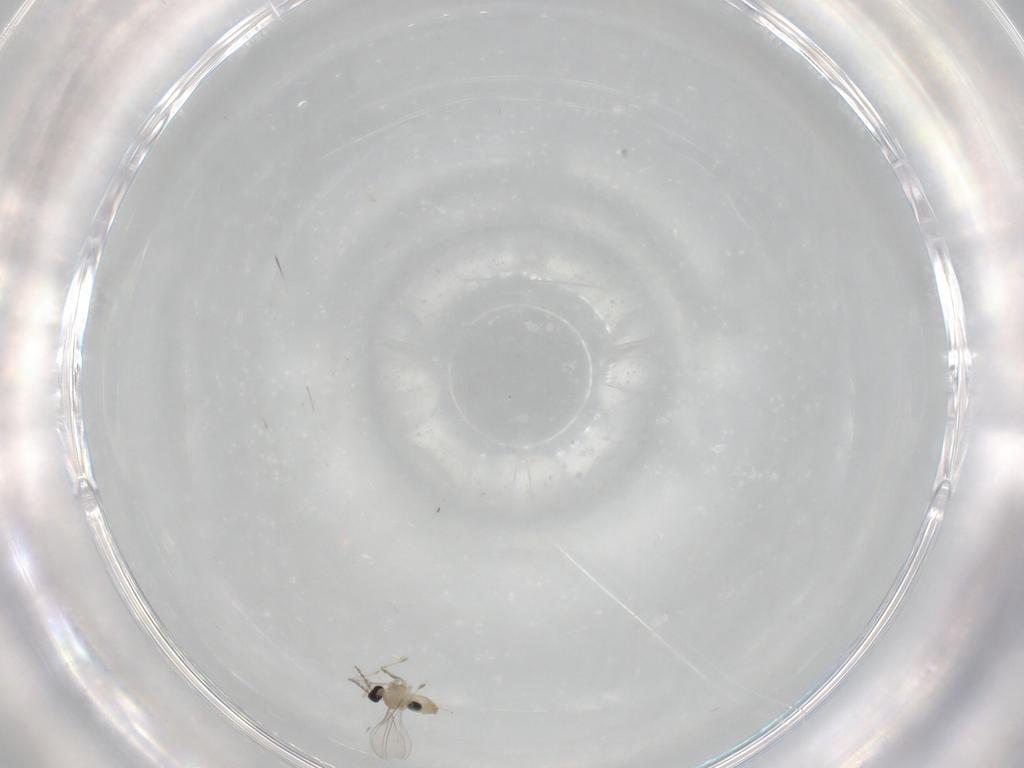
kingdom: Animalia
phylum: Arthropoda
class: Insecta
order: Diptera
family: Cecidomyiidae
